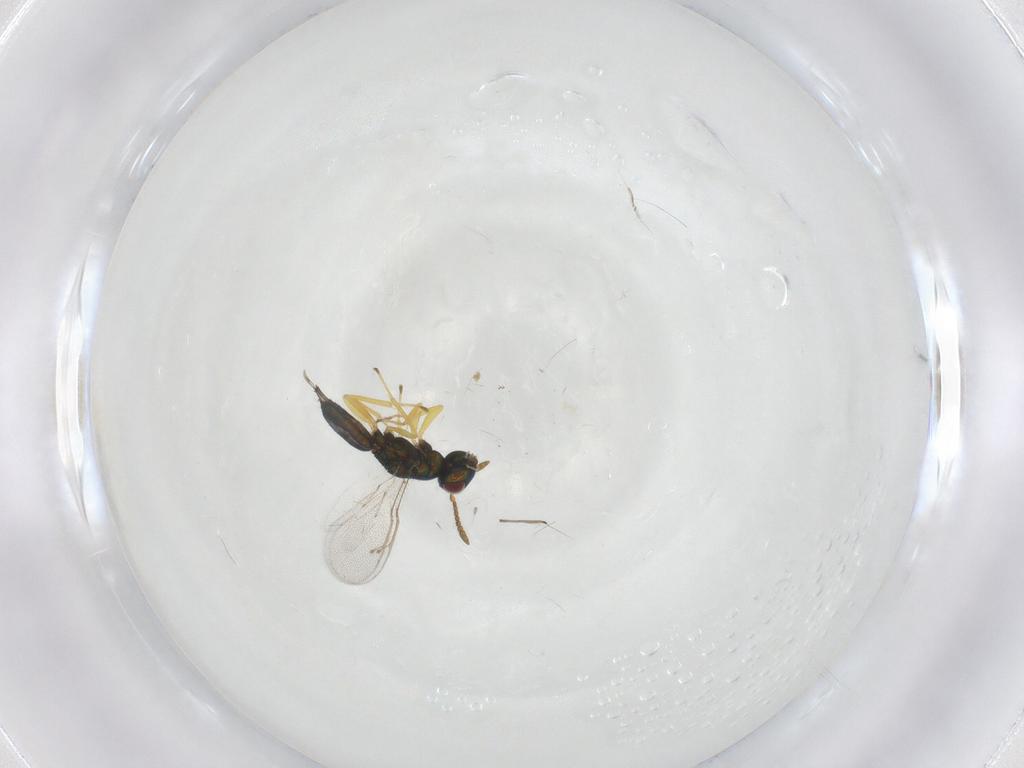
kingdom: Animalia
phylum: Arthropoda
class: Insecta
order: Hymenoptera
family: Pteromalidae
